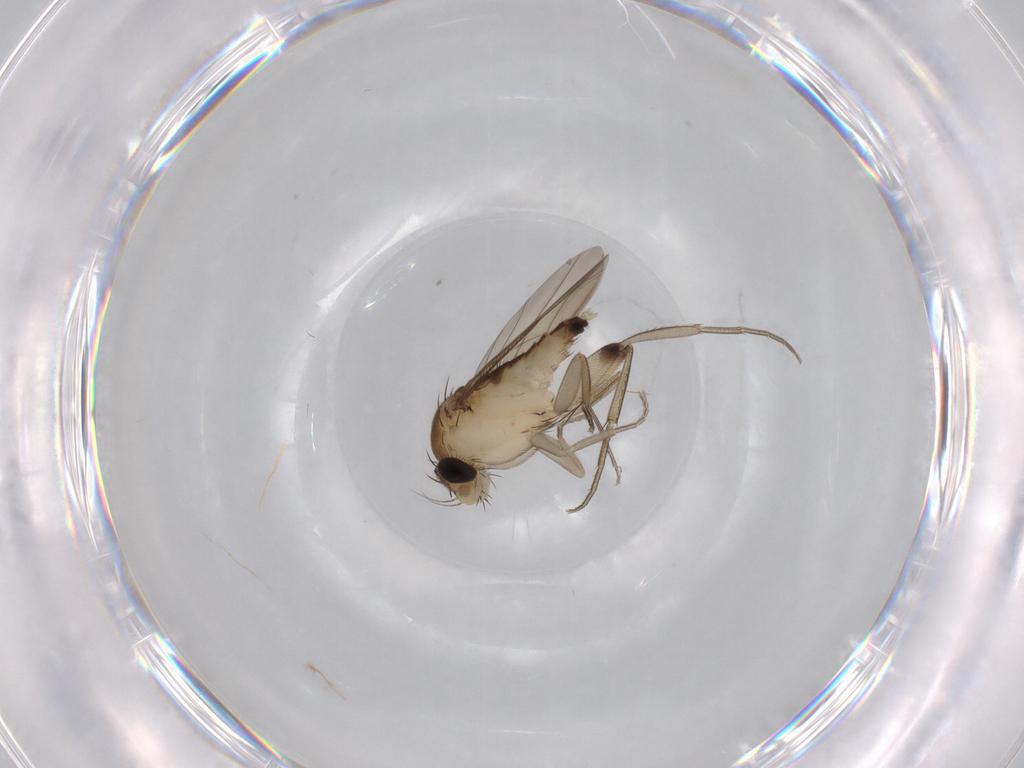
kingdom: Animalia
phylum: Arthropoda
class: Insecta
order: Diptera
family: Phoridae
